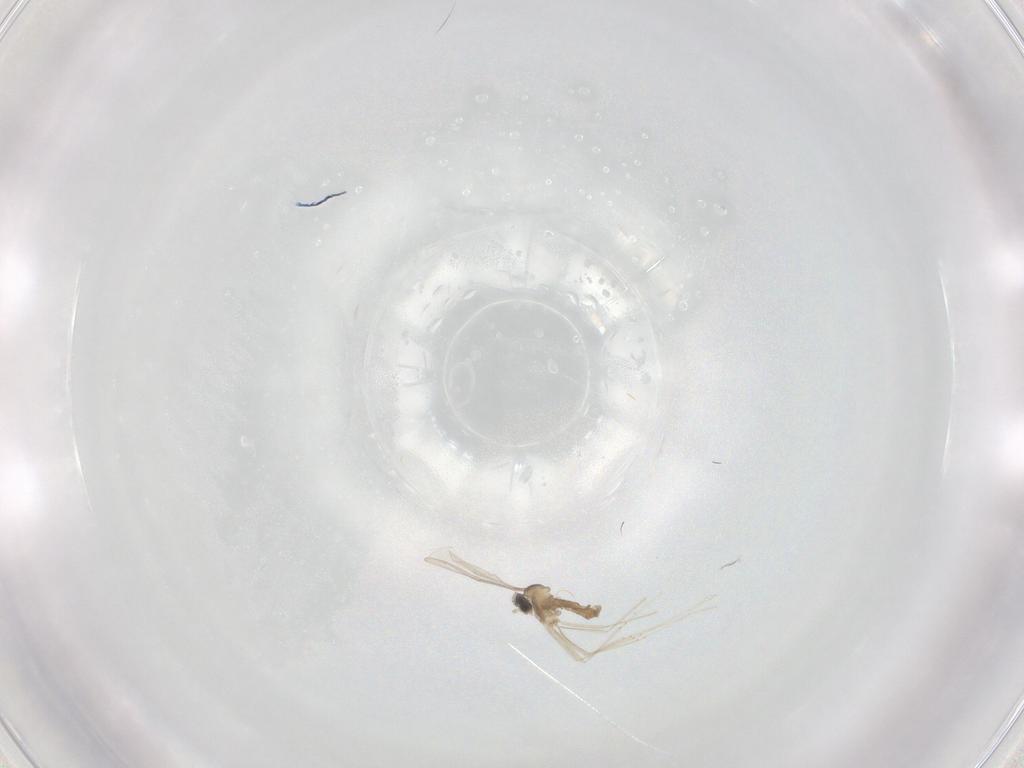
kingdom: Animalia
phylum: Arthropoda
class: Insecta
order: Diptera
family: Cecidomyiidae
